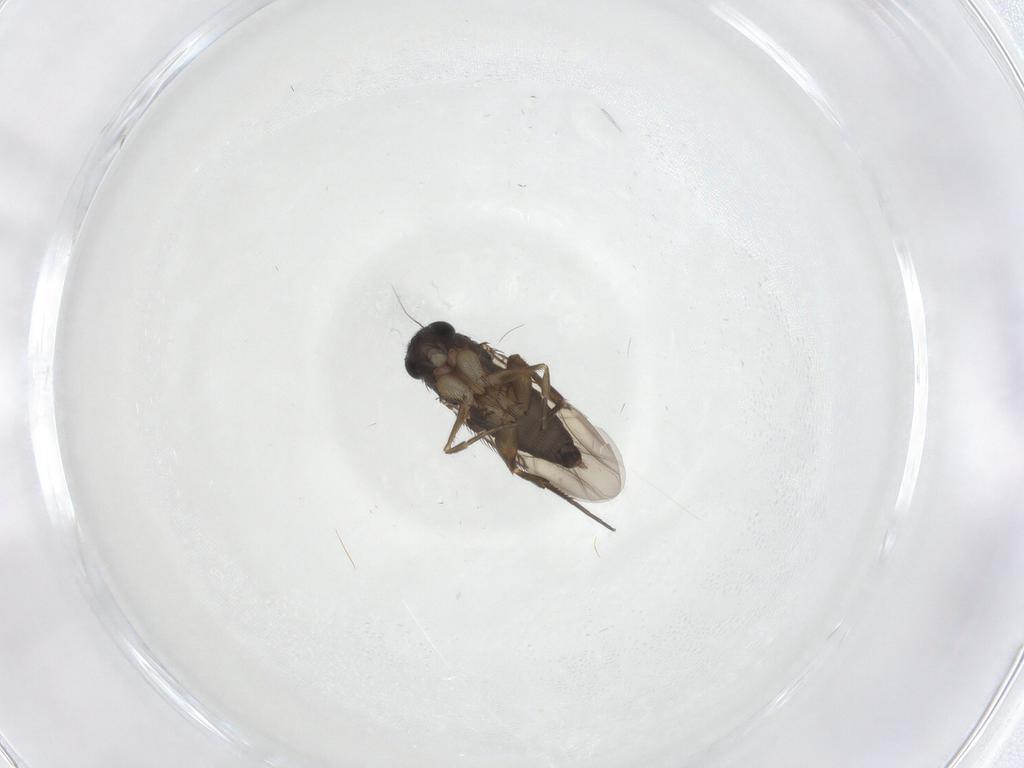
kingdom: Animalia
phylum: Arthropoda
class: Insecta
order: Diptera
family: Phoridae
